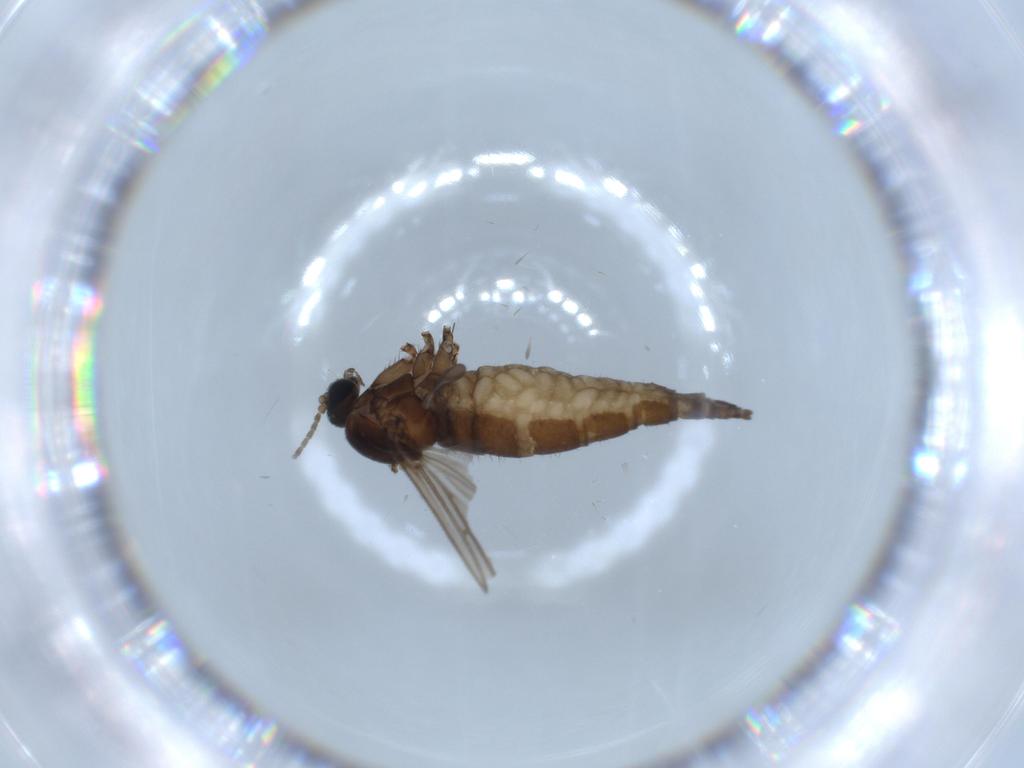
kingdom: Animalia
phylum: Arthropoda
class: Insecta
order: Diptera
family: Sciaridae
